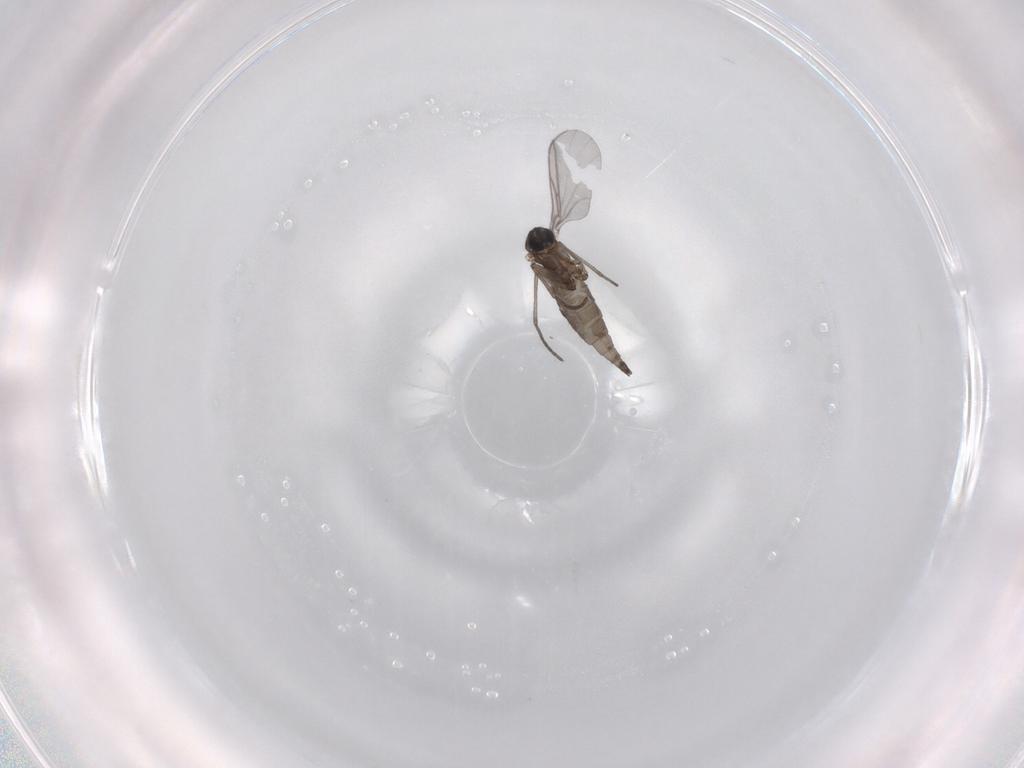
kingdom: Animalia
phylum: Arthropoda
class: Insecta
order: Diptera
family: Sciaridae
